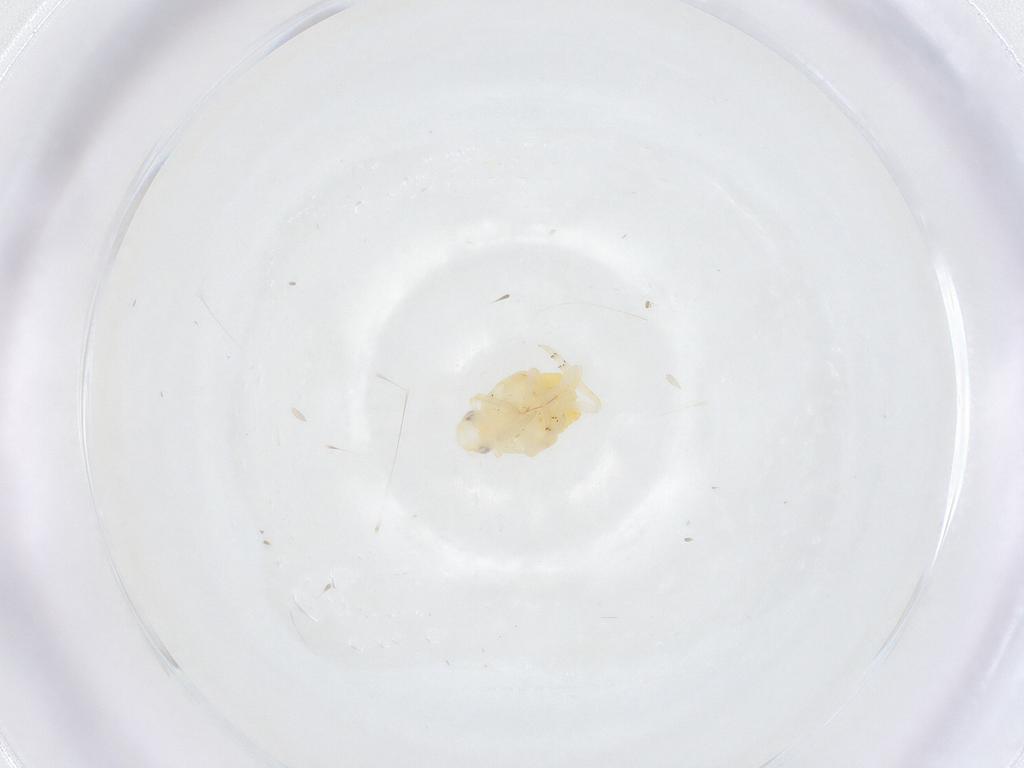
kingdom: Animalia
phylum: Arthropoda
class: Insecta
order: Hemiptera
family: Fulgoroidea_incertae_sedis
